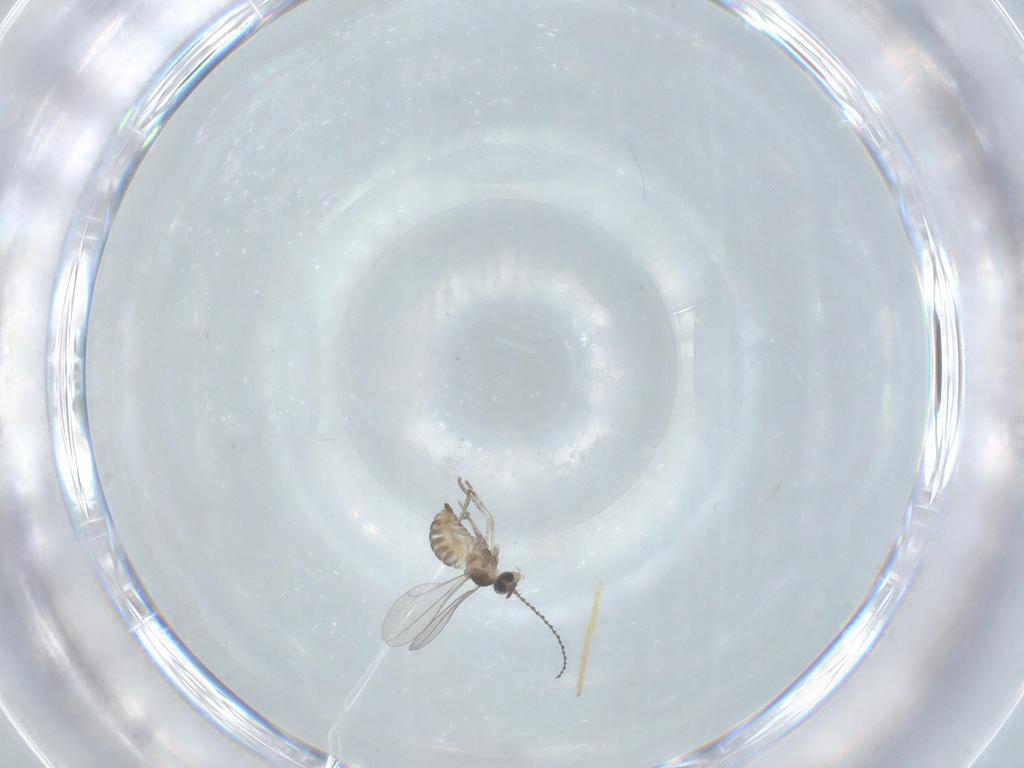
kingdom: Animalia
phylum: Arthropoda
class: Insecta
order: Diptera
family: Cecidomyiidae
